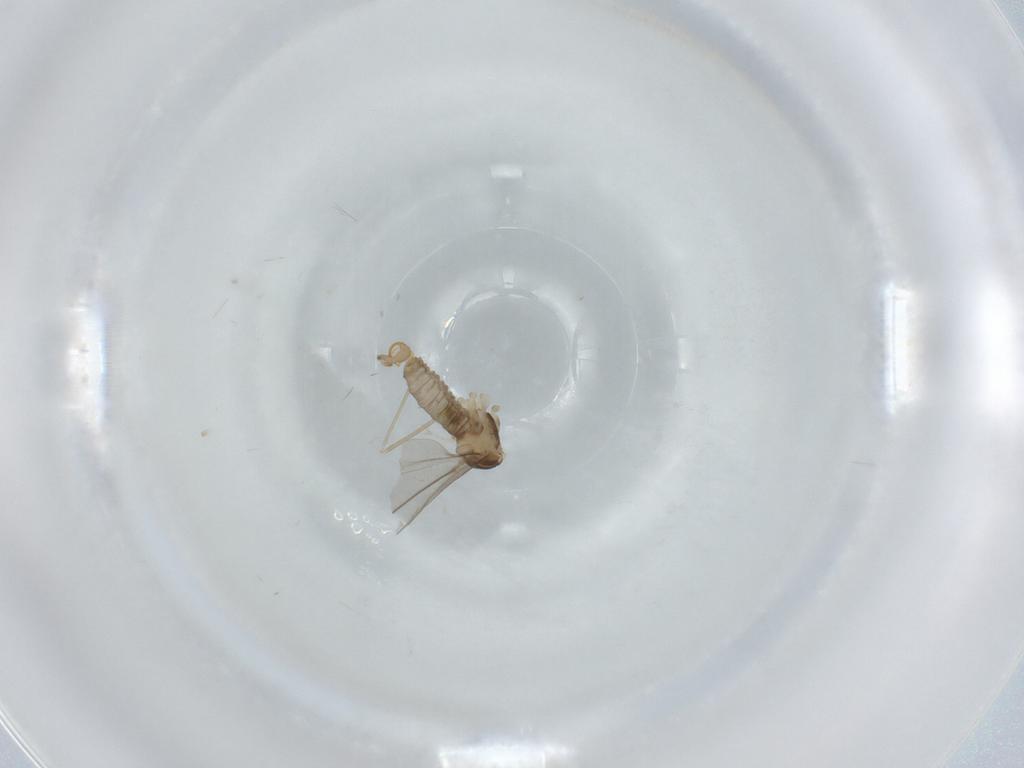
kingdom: Animalia
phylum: Arthropoda
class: Insecta
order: Diptera
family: Cecidomyiidae
